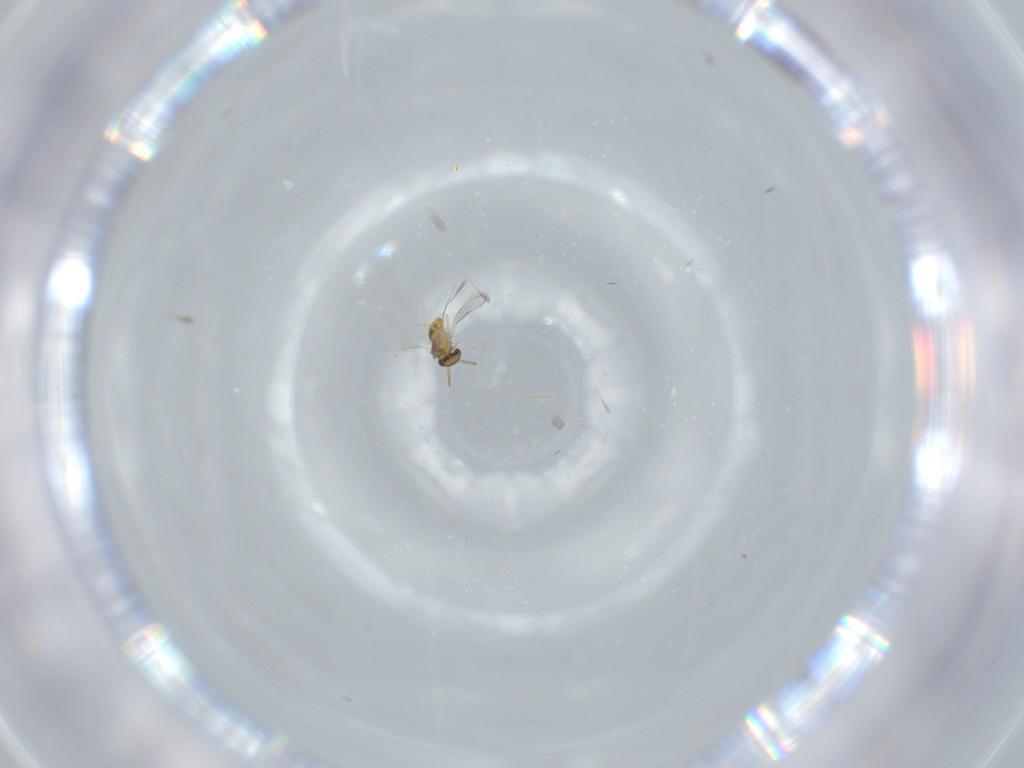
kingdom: Animalia
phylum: Arthropoda
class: Insecta
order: Hymenoptera
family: Aphelinidae
